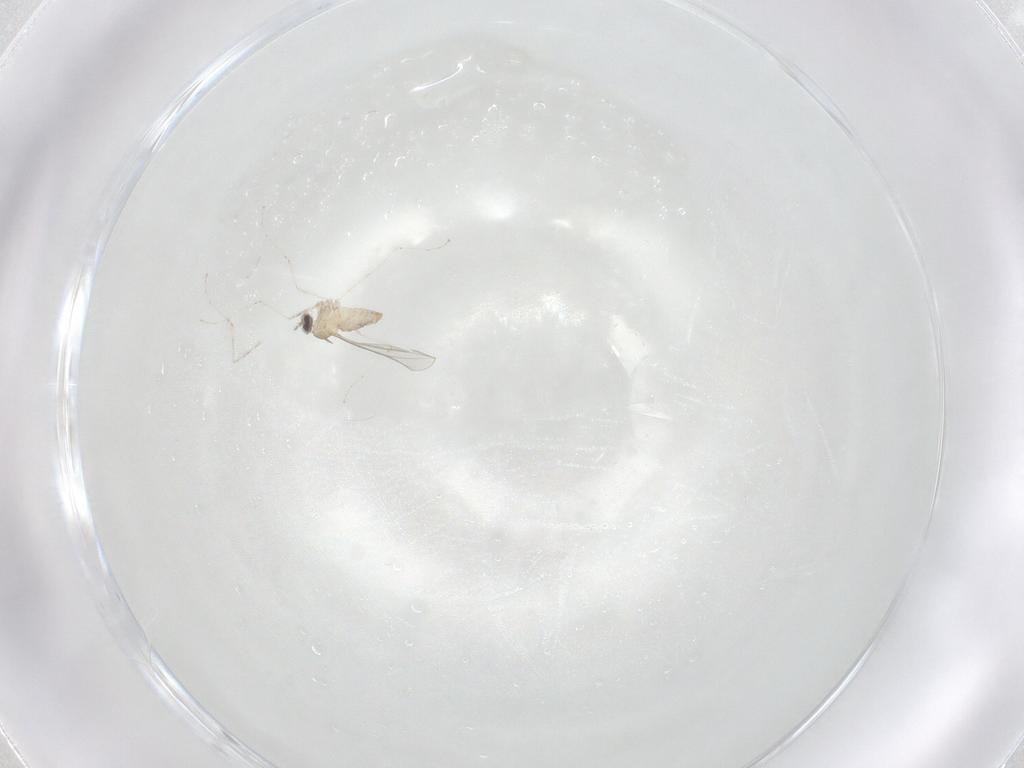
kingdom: Animalia
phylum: Arthropoda
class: Insecta
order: Diptera
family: Cecidomyiidae
